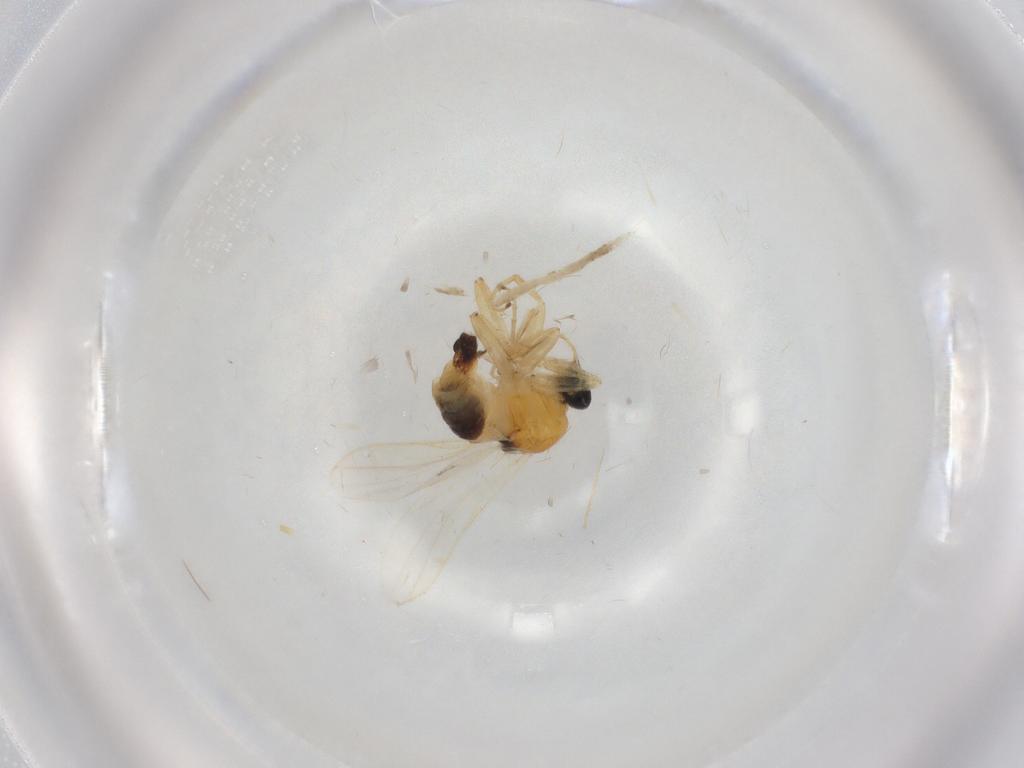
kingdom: Animalia
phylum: Arthropoda
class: Insecta
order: Diptera
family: Hybotidae
